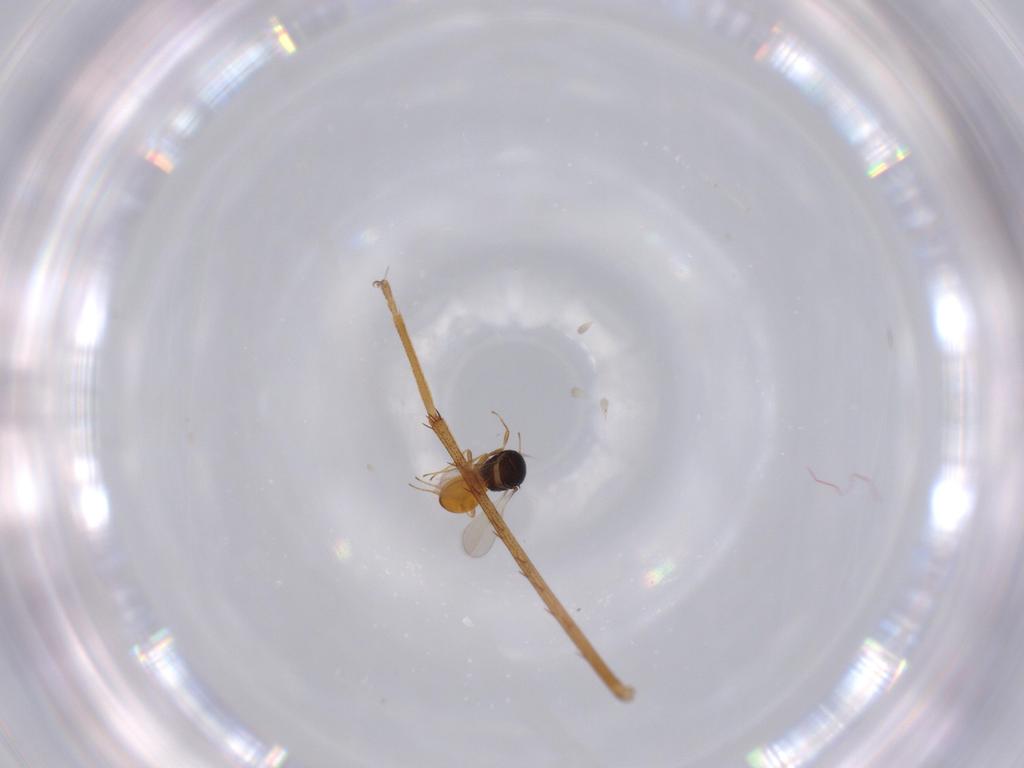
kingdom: Animalia
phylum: Arthropoda
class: Insecta
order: Hymenoptera
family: Scelionidae
